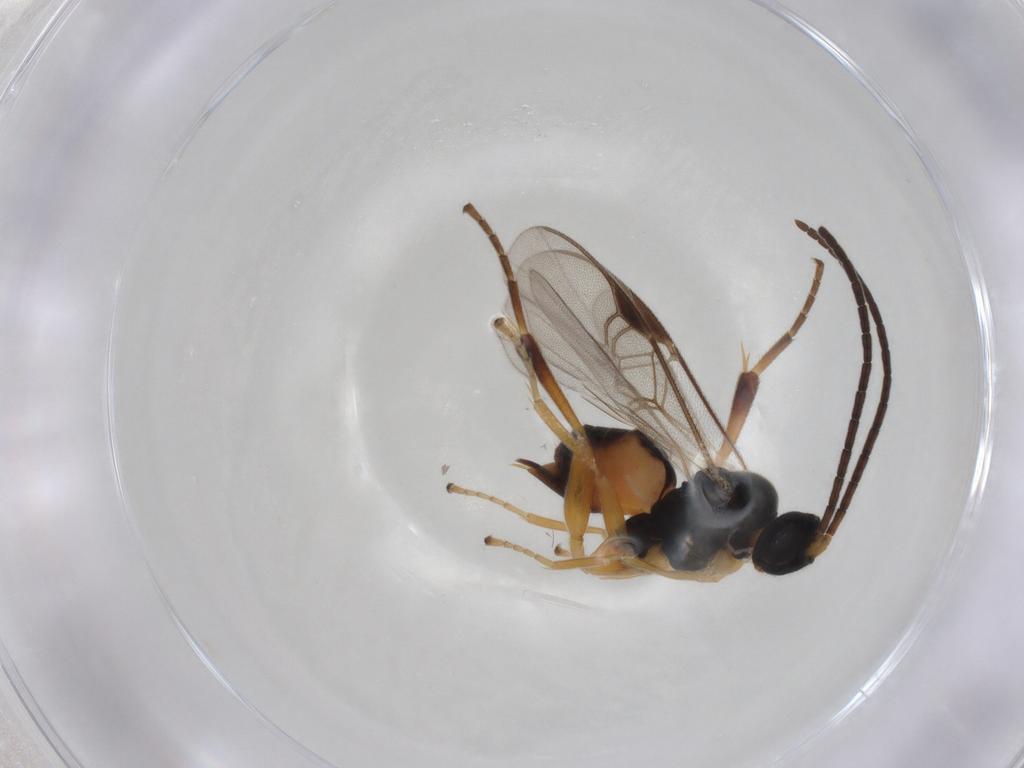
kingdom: Animalia
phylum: Arthropoda
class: Insecta
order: Hymenoptera
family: Braconidae
